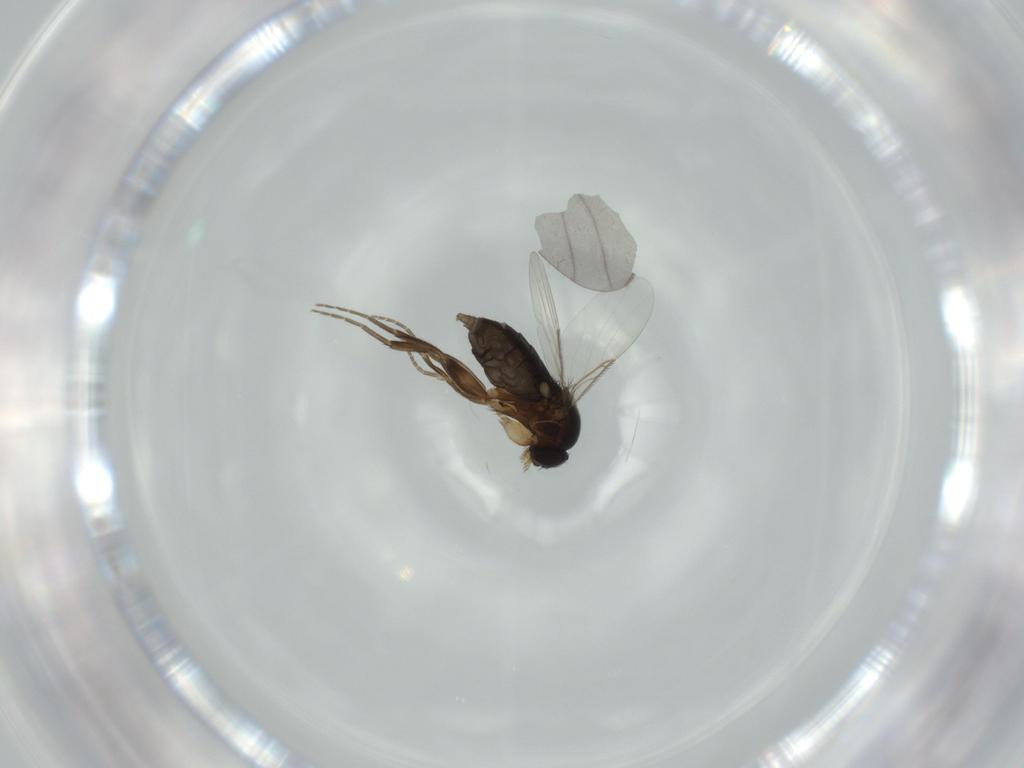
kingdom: Animalia
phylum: Arthropoda
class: Insecta
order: Diptera
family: Phoridae
